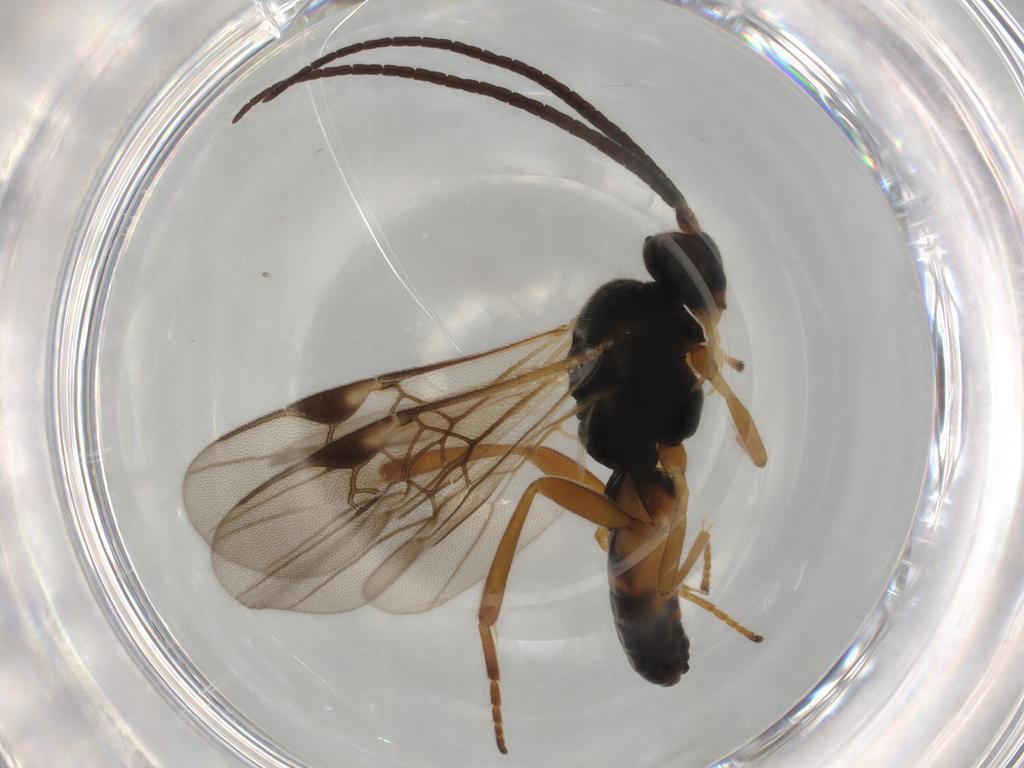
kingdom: Animalia
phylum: Arthropoda
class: Insecta
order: Hymenoptera
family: Braconidae
